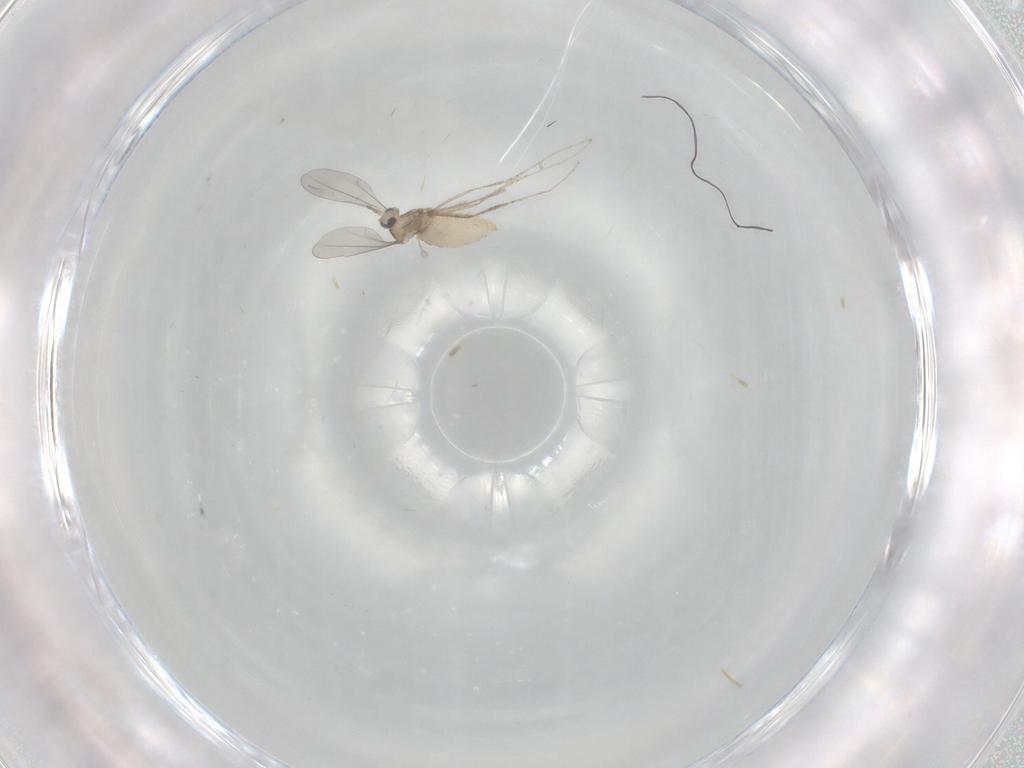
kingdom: Animalia
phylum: Arthropoda
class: Insecta
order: Diptera
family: Cecidomyiidae
